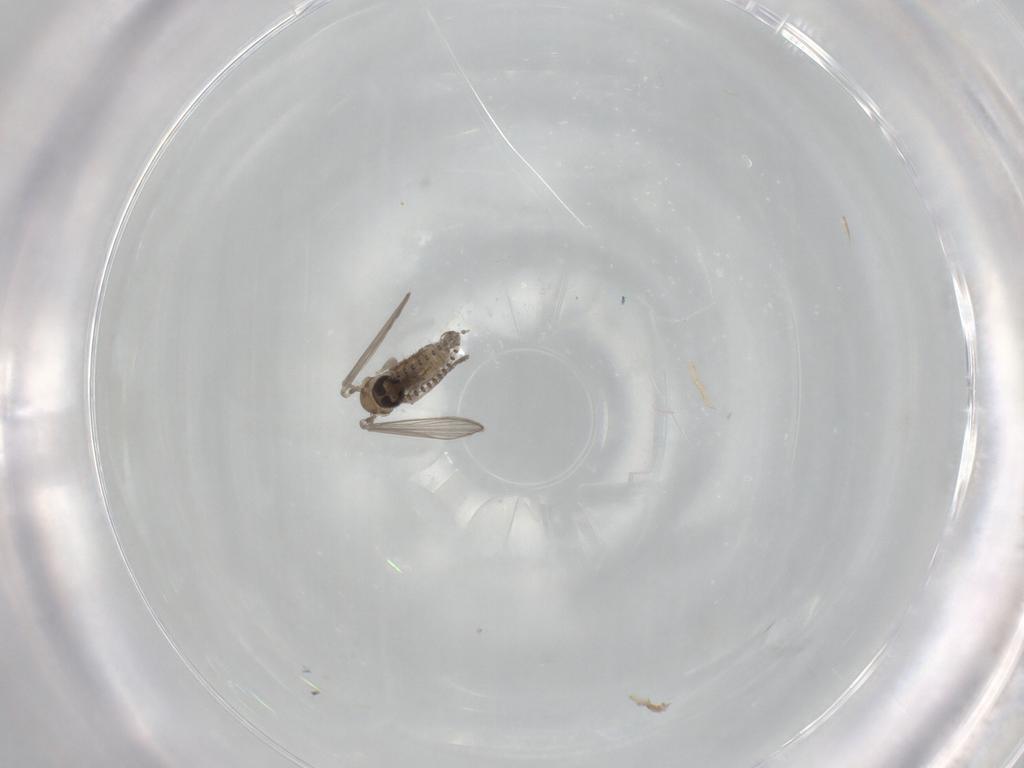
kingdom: Animalia
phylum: Arthropoda
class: Insecta
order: Diptera
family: Psychodidae
